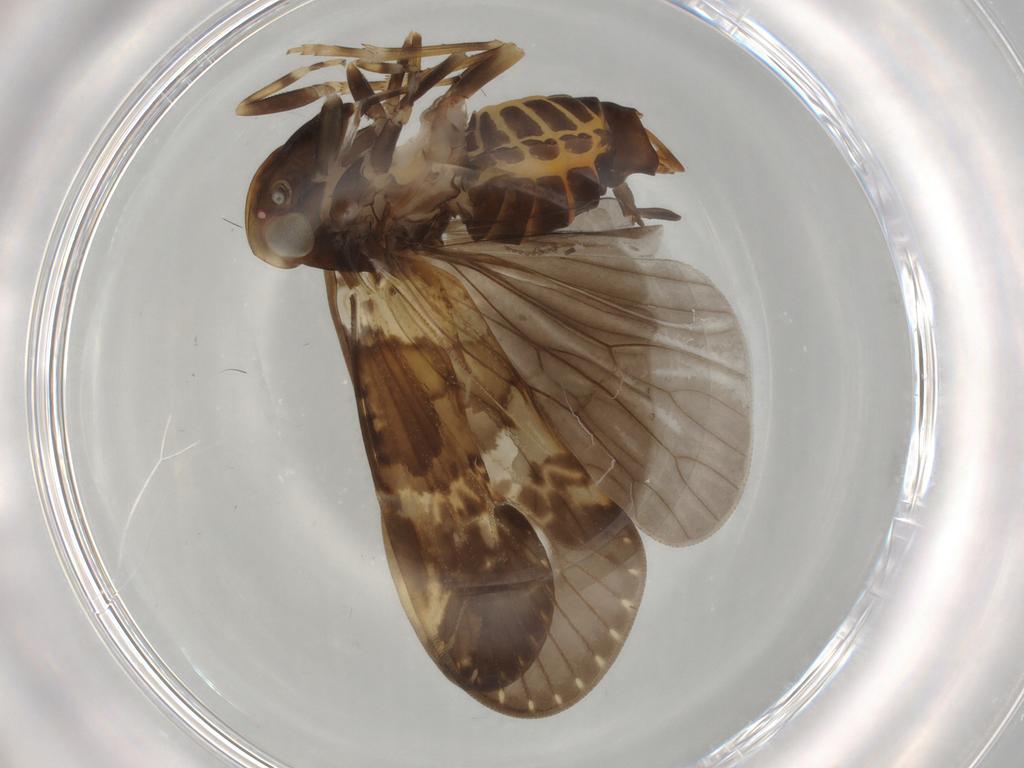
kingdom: Animalia
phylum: Arthropoda
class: Insecta
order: Hemiptera
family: Cixiidae
